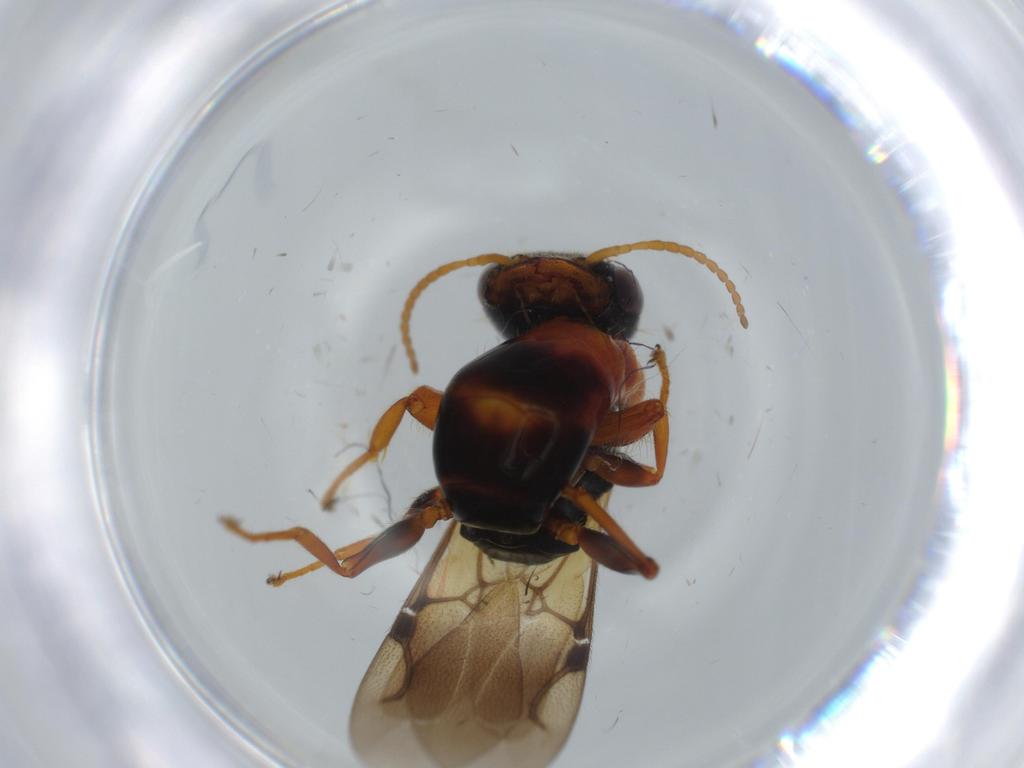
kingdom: Animalia
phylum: Arthropoda
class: Insecta
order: Hymenoptera
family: Bethylidae
